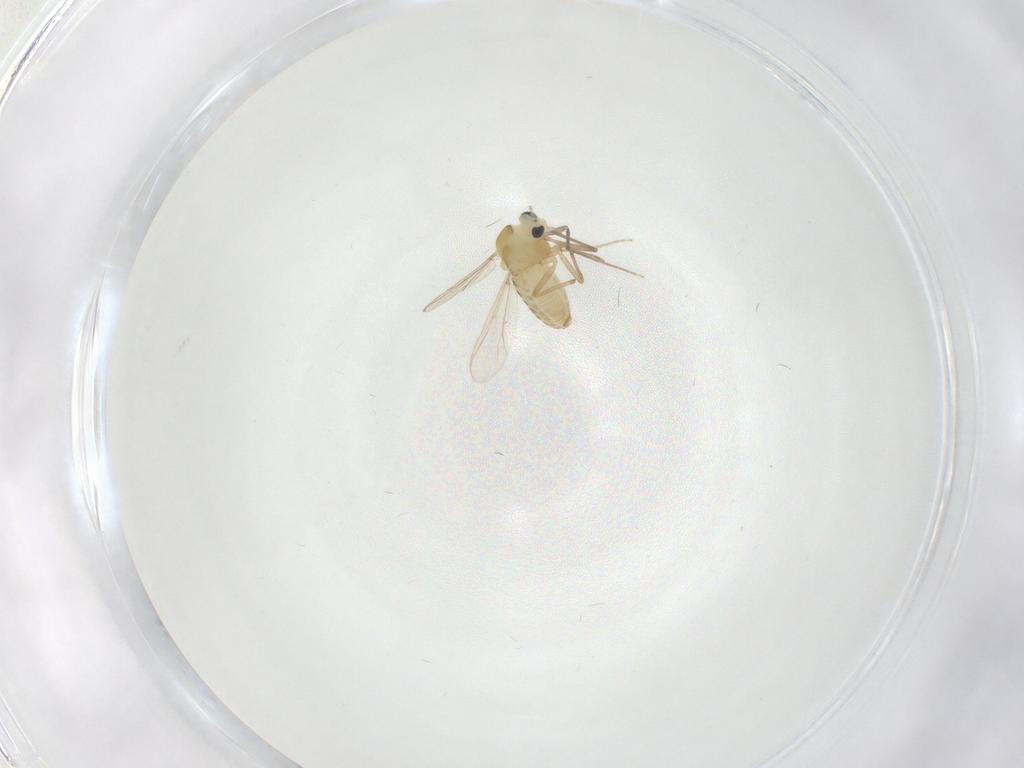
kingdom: Animalia
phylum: Arthropoda
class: Insecta
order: Diptera
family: Chironomidae
